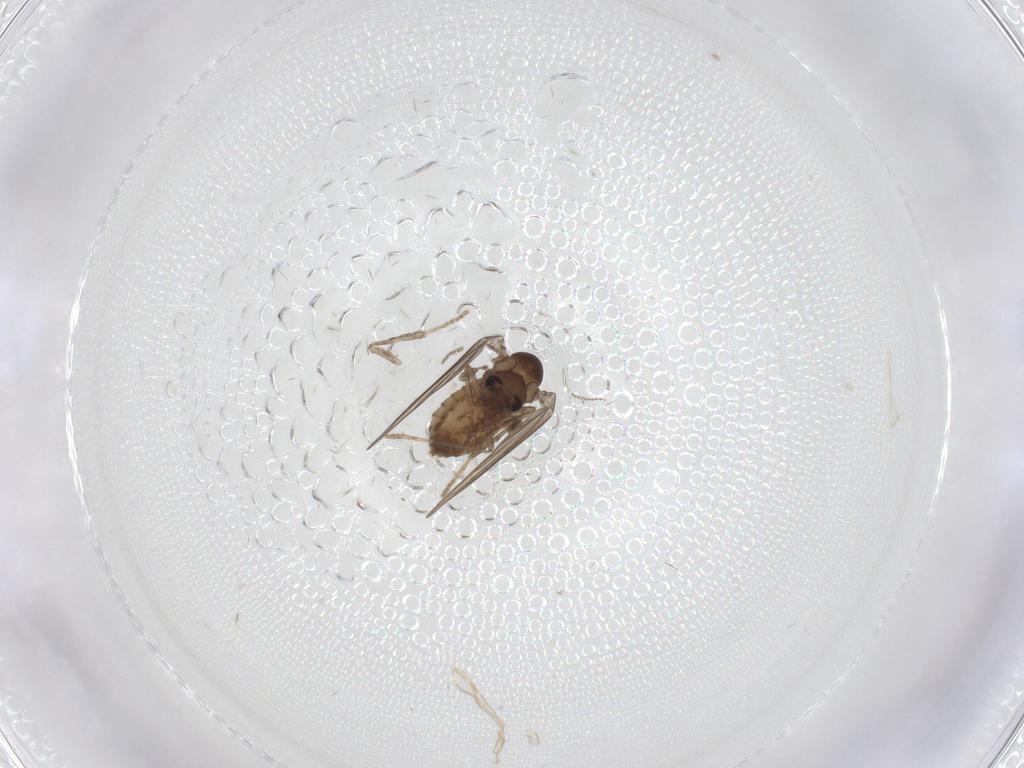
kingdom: Animalia
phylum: Arthropoda
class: Insecta
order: Diptera
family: Psychodidae
